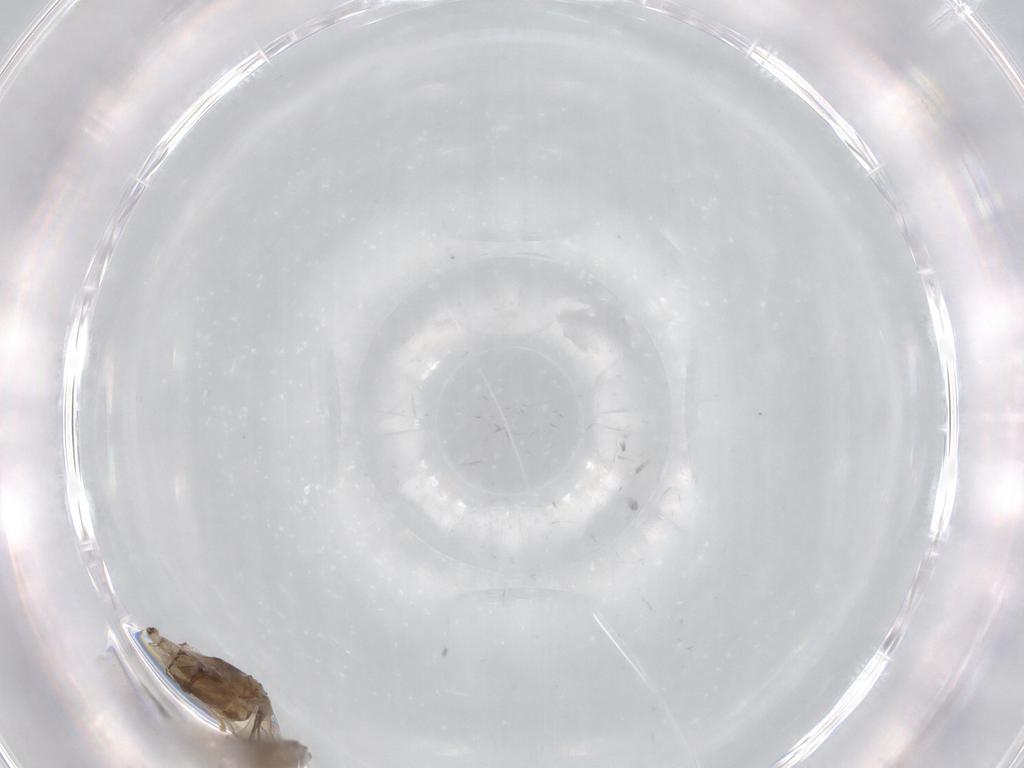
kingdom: Animalia
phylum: Arthropoda
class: Insecta
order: Diptera
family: Limoniidae
